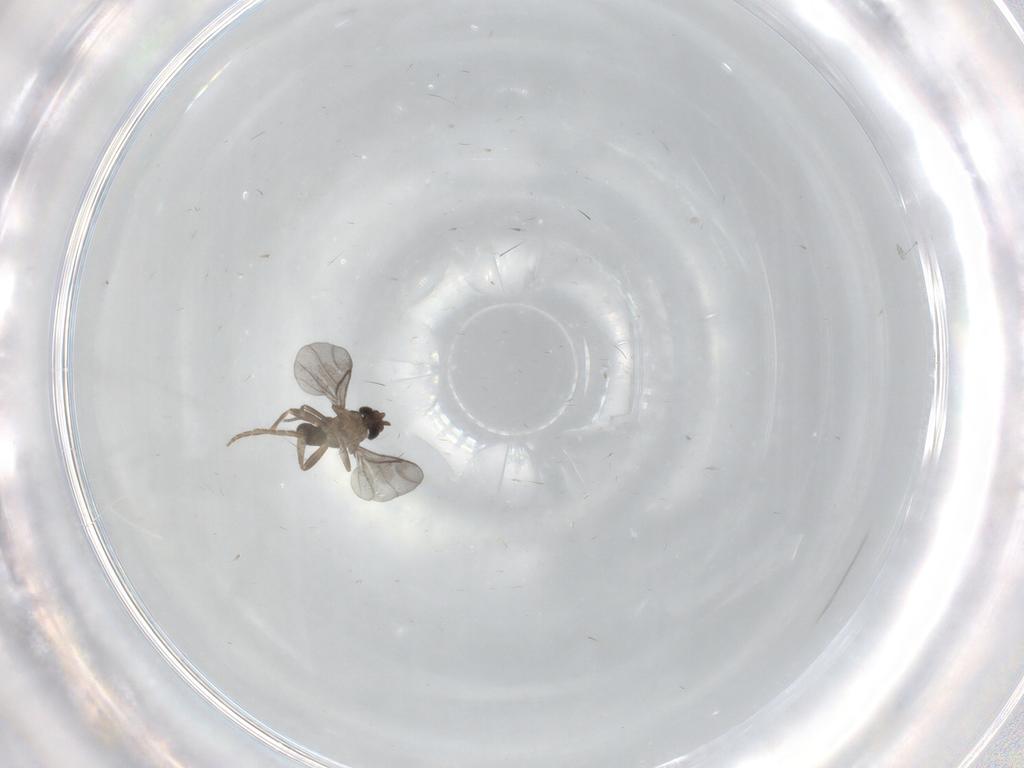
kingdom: Animalia
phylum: Arthropoda
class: Insecta
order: Diptera
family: Phoridae
